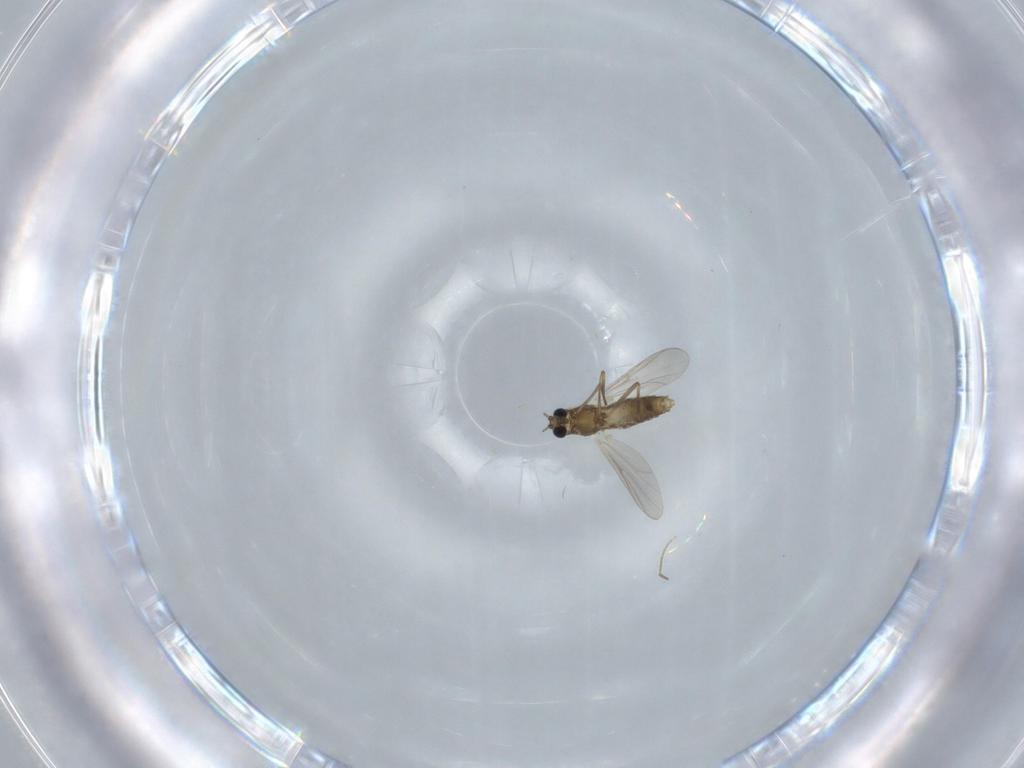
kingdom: Animalia
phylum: Arthropoda
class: Insecta
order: Diptera
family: Chironomidae
